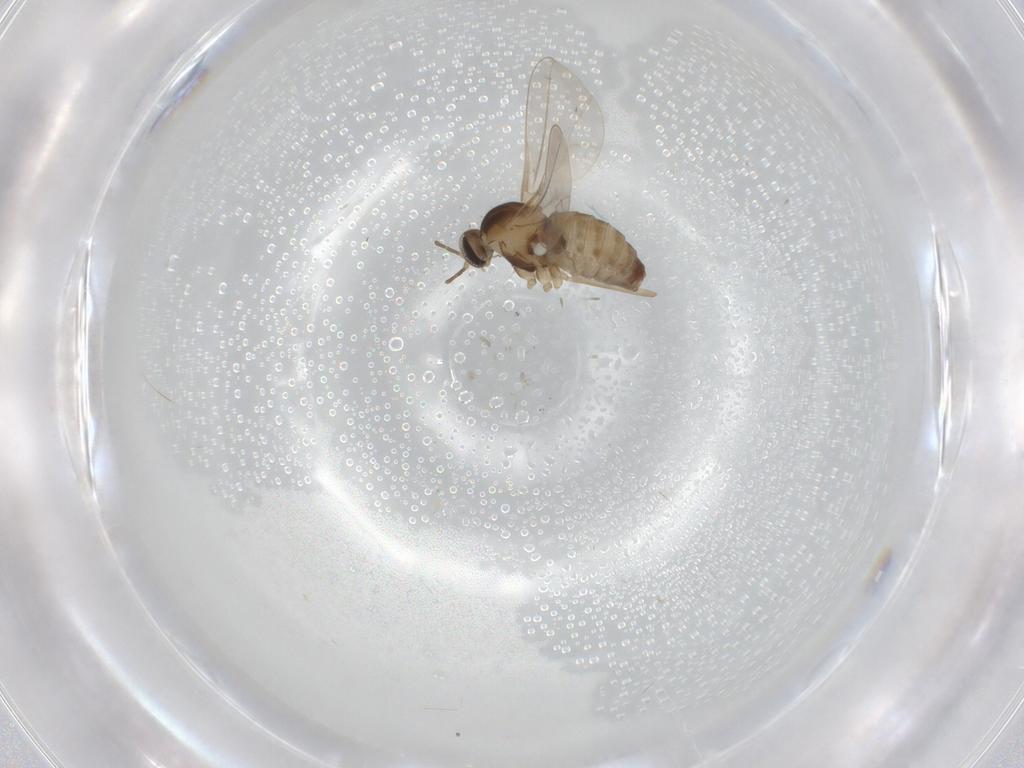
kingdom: Animalia
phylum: Arthropoda
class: Insecta
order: Diptera
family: Cecidomyiidae
